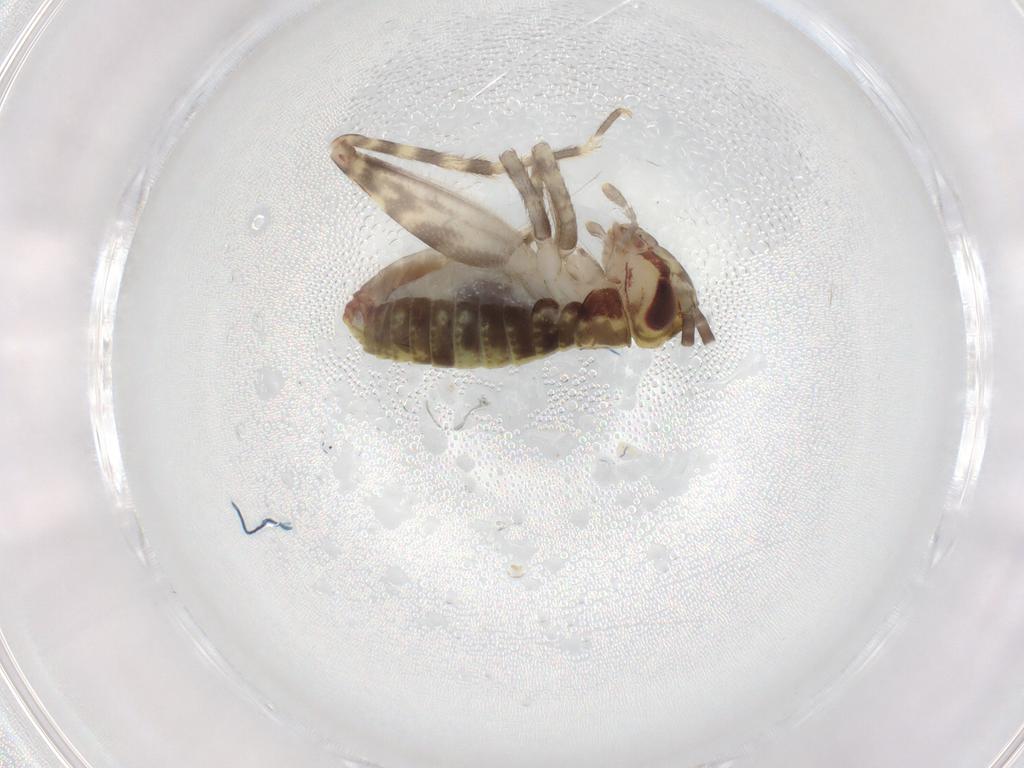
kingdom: Animalia
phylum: Arthropoda
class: Insecta
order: Orthoptera
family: Gryllidae
